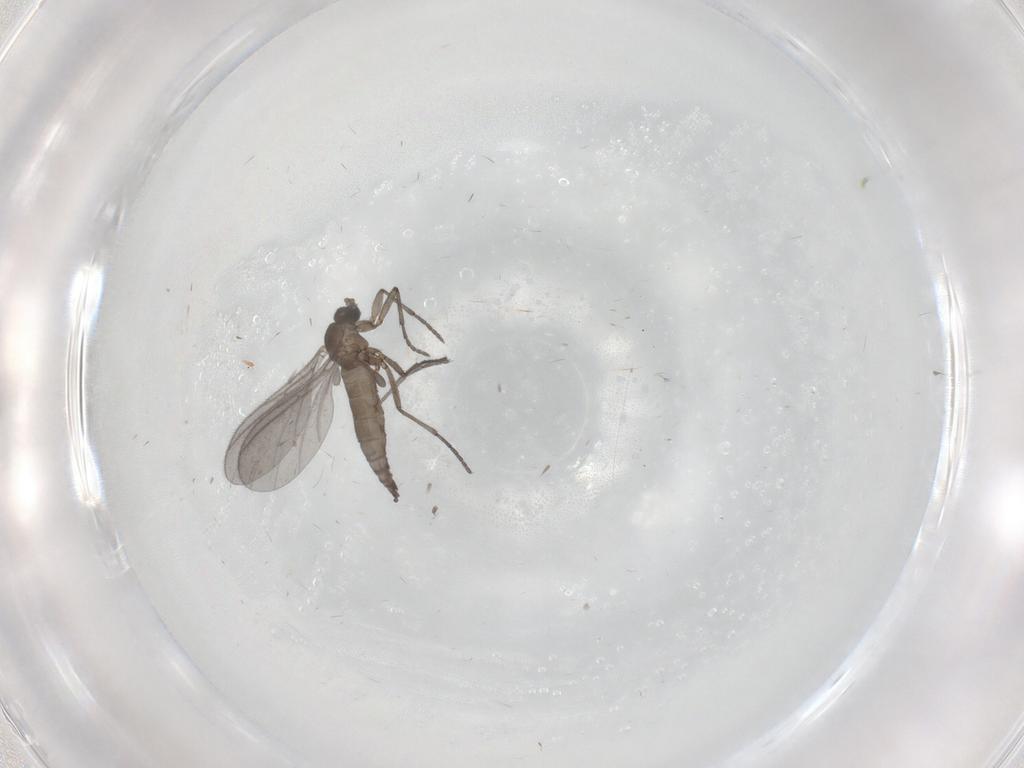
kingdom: Animalia
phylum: Arthropoda
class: Insecta
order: Diptera
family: Sciaridae
